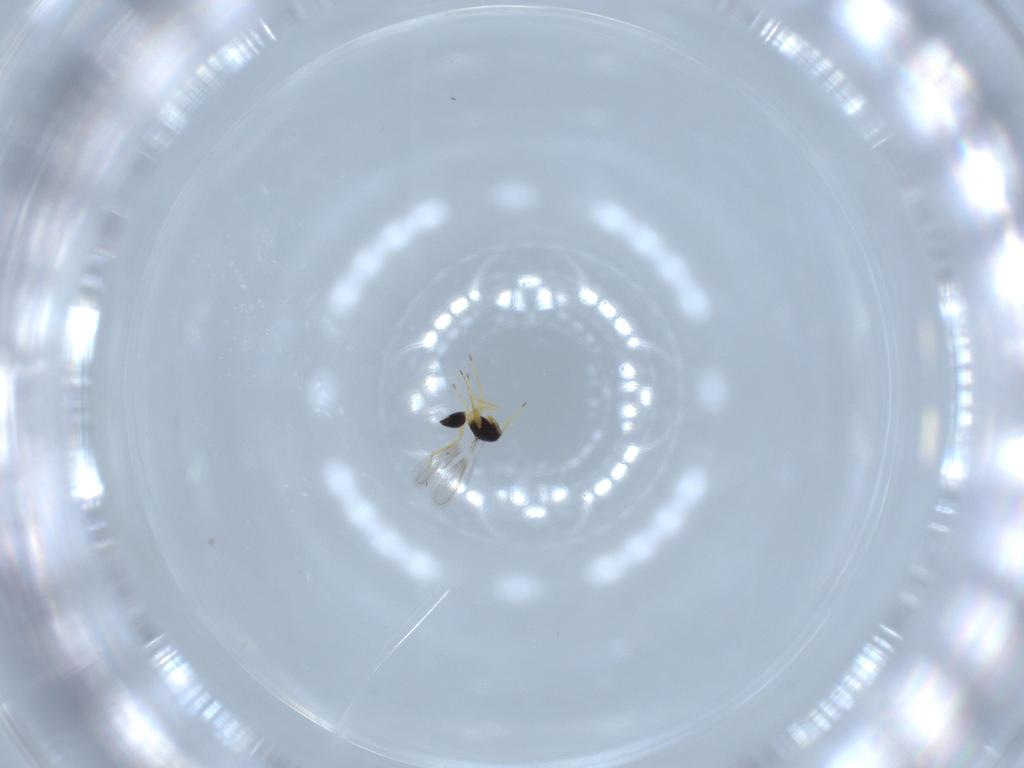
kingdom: Animalia
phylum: Arthropoda
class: Insecta
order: Hymenoptera
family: Mymaridae
